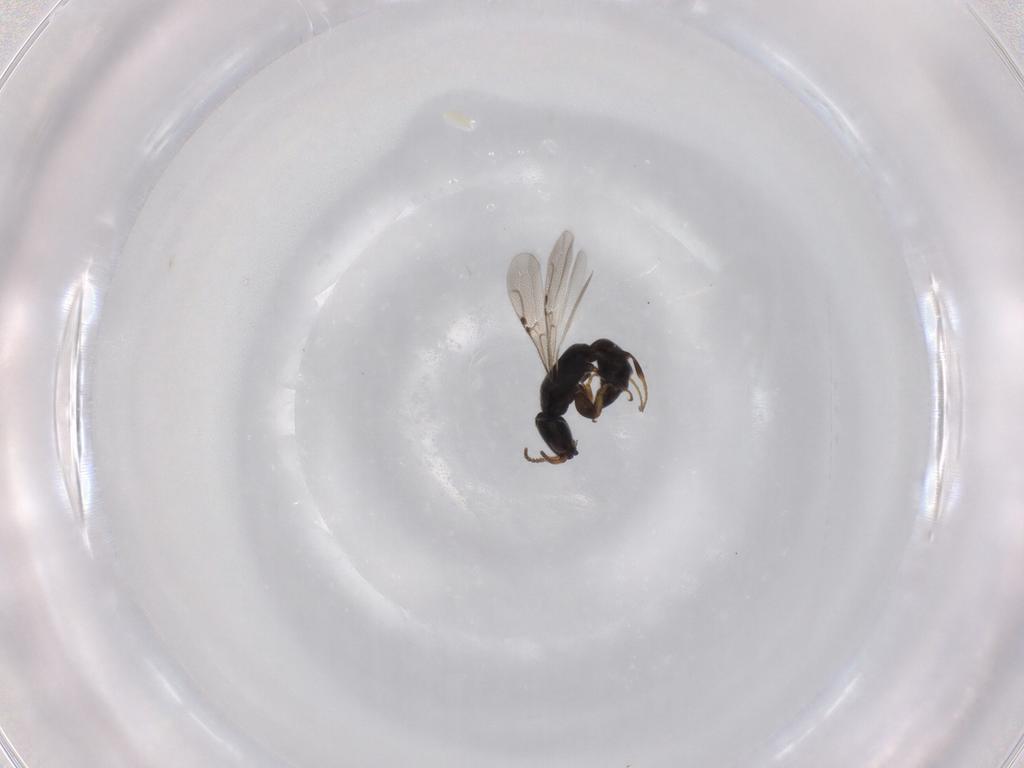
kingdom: Animalia
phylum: Arthropoda
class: Insecta
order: Hymenoptera
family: Bethylidae
